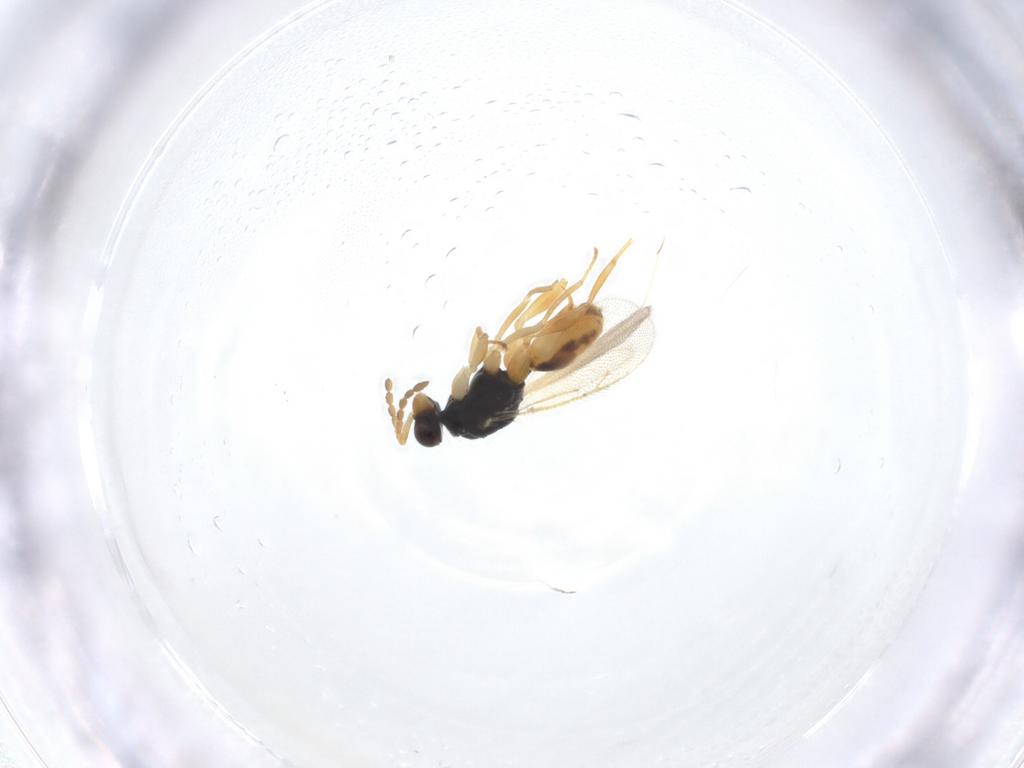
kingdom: Animalia
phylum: Arthropoda
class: Insecta
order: Hymenoptera
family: Eulophidae
